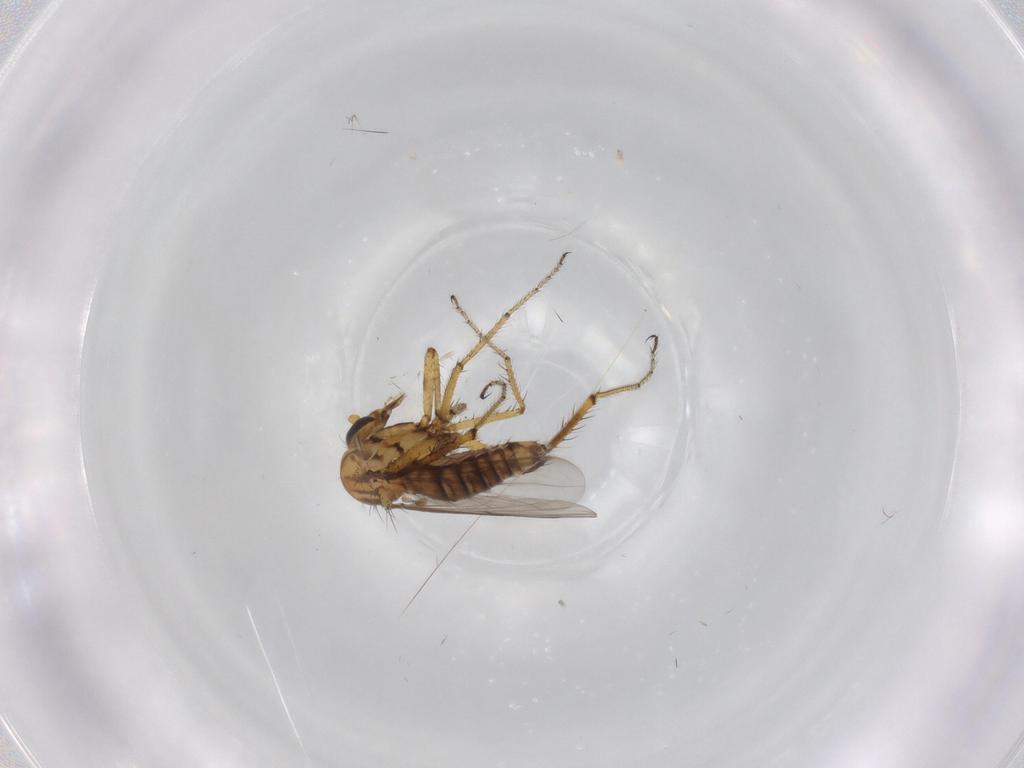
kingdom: Animalia
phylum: Arthropoda
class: Insecta
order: Diptera
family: Ceratopogonidae
